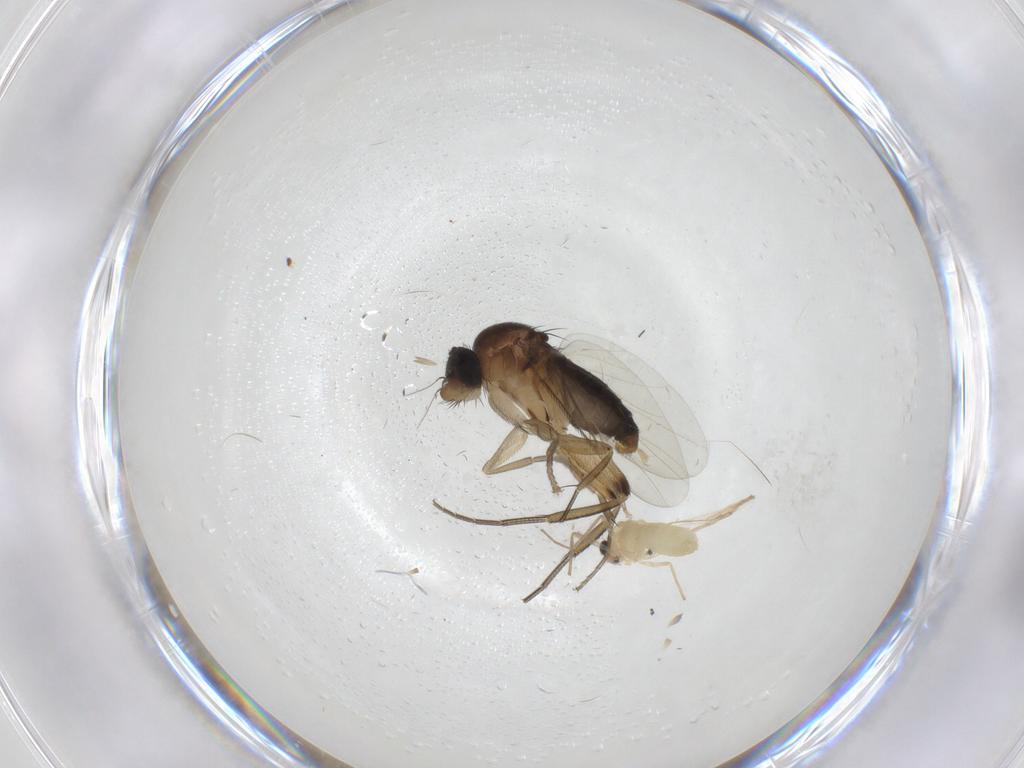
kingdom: Animalia
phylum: Arthropoda
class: Insecta
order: Diptera
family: Phoridae
